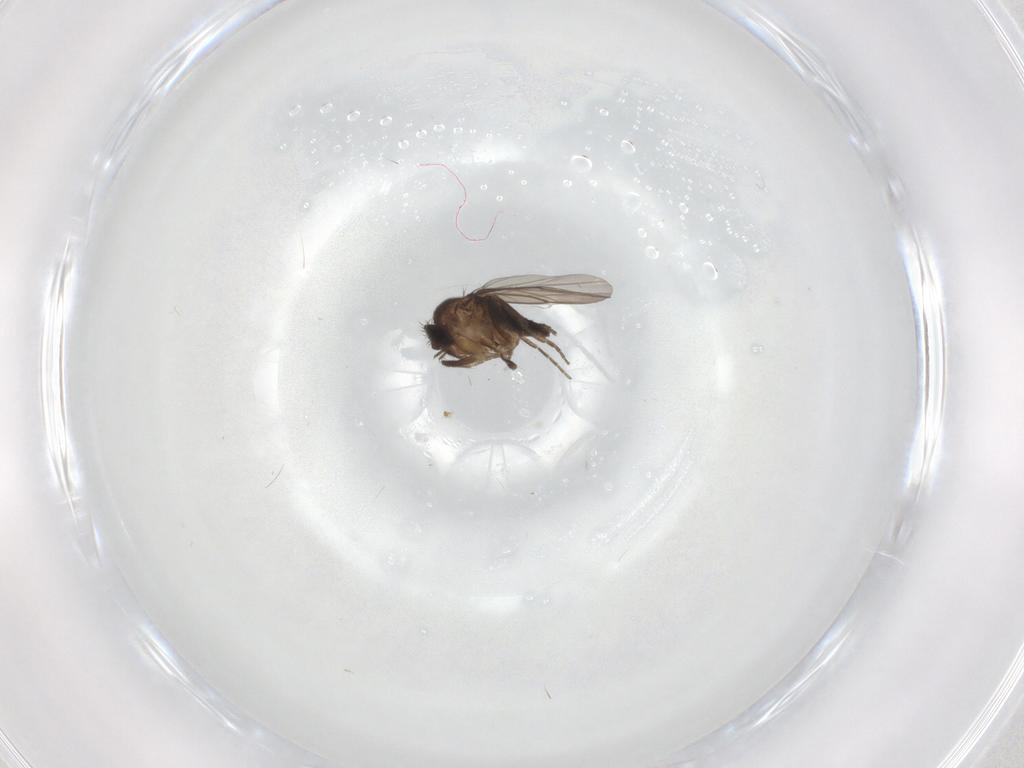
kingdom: Animalia
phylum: Arthropoda
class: Insecta
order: Diptera
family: Phoridae
